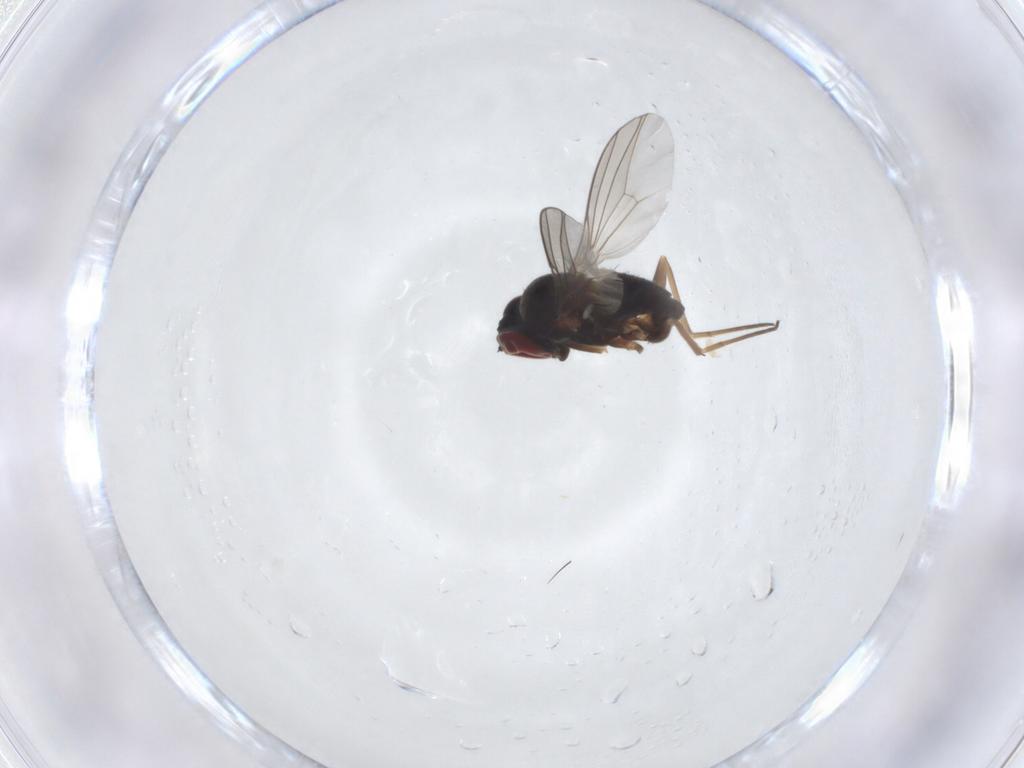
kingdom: Animalia
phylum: Arthropoda
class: Insecta
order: Diptera
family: Dolichopodidae
